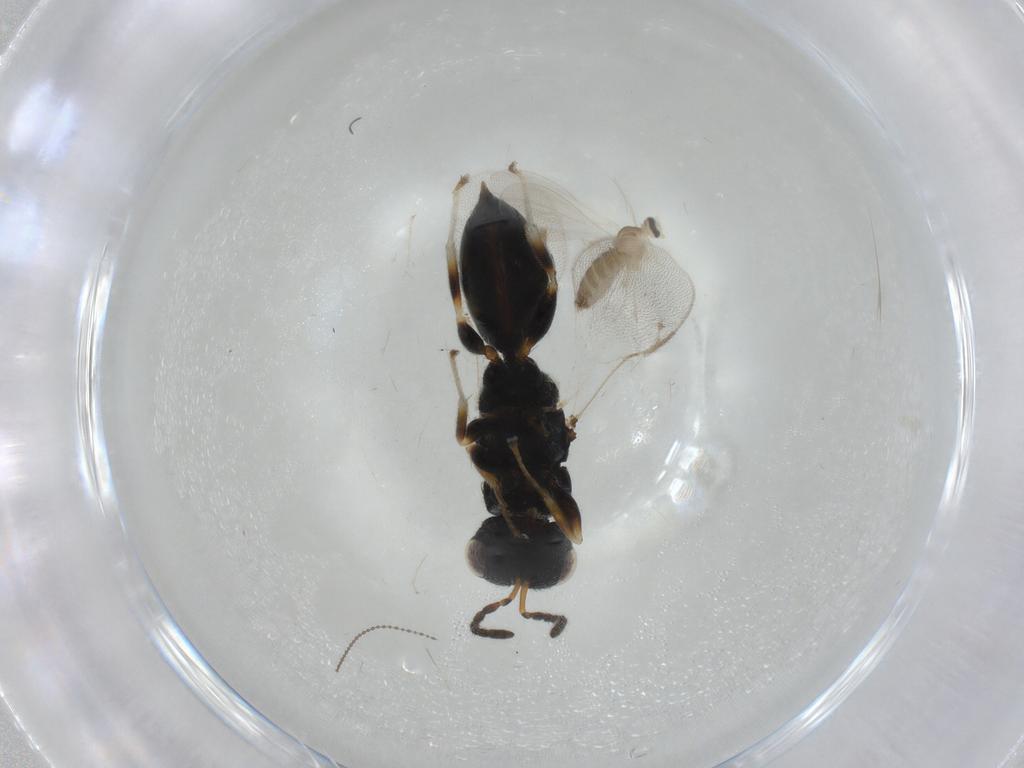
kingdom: Animalia
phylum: Arthropoda
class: Insecta
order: Diptera
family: Cecidomyiidae
